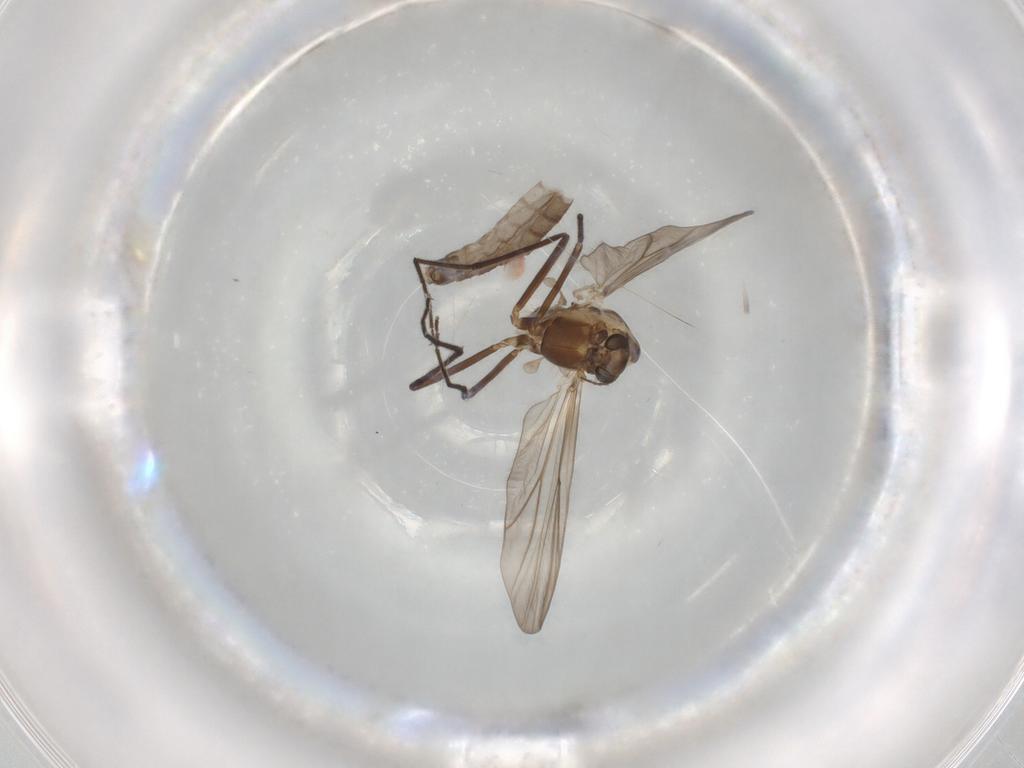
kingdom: Animalia
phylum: Arthropoda
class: Insecta
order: Diptera
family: Chironomidae
